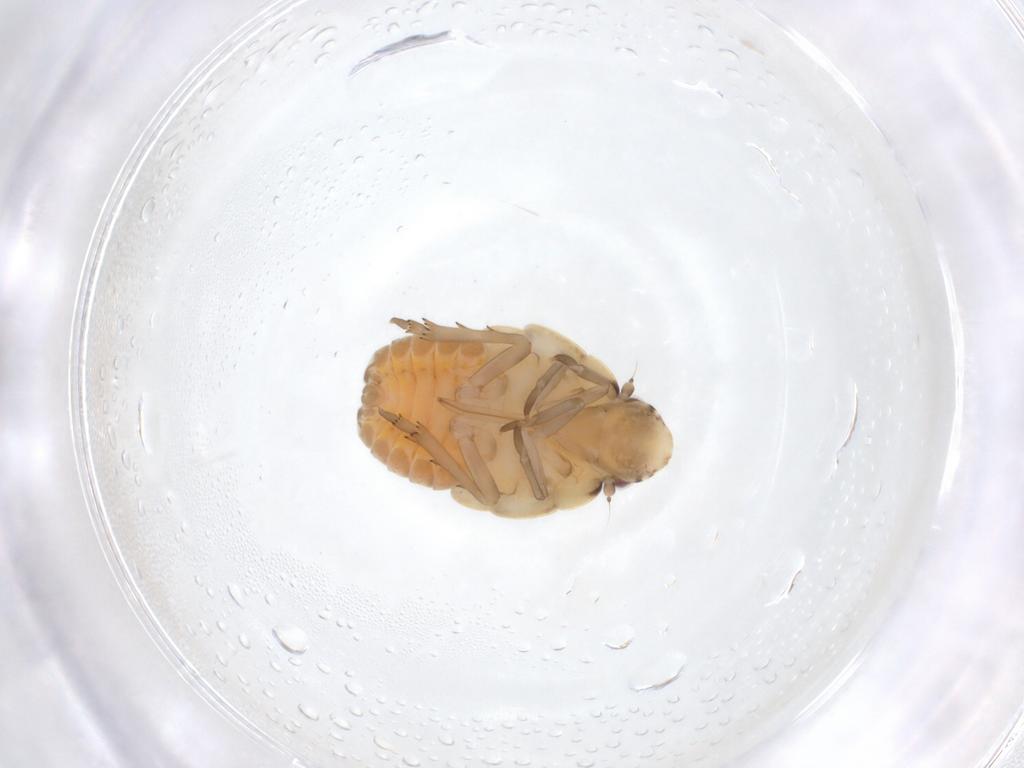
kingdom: Animalia
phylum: Arthropoda
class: Insecta
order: Hemiptera
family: Flatidae
